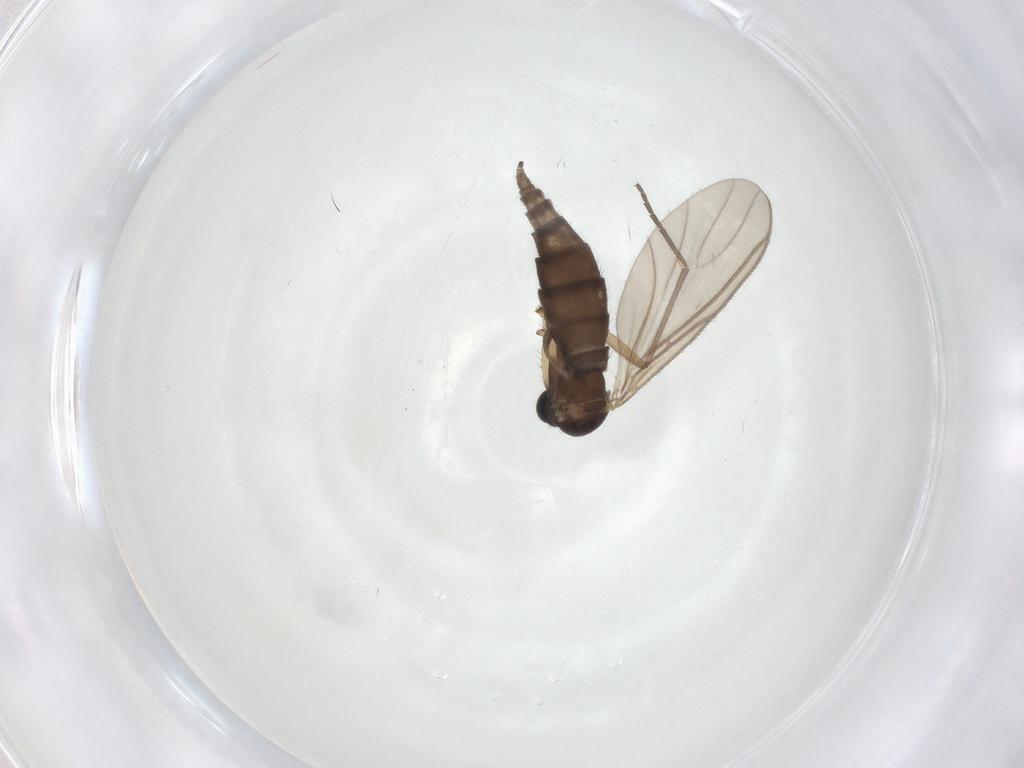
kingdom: Animalia
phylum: Arthropoda
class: Insecta
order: Diptera
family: Sciaridae
